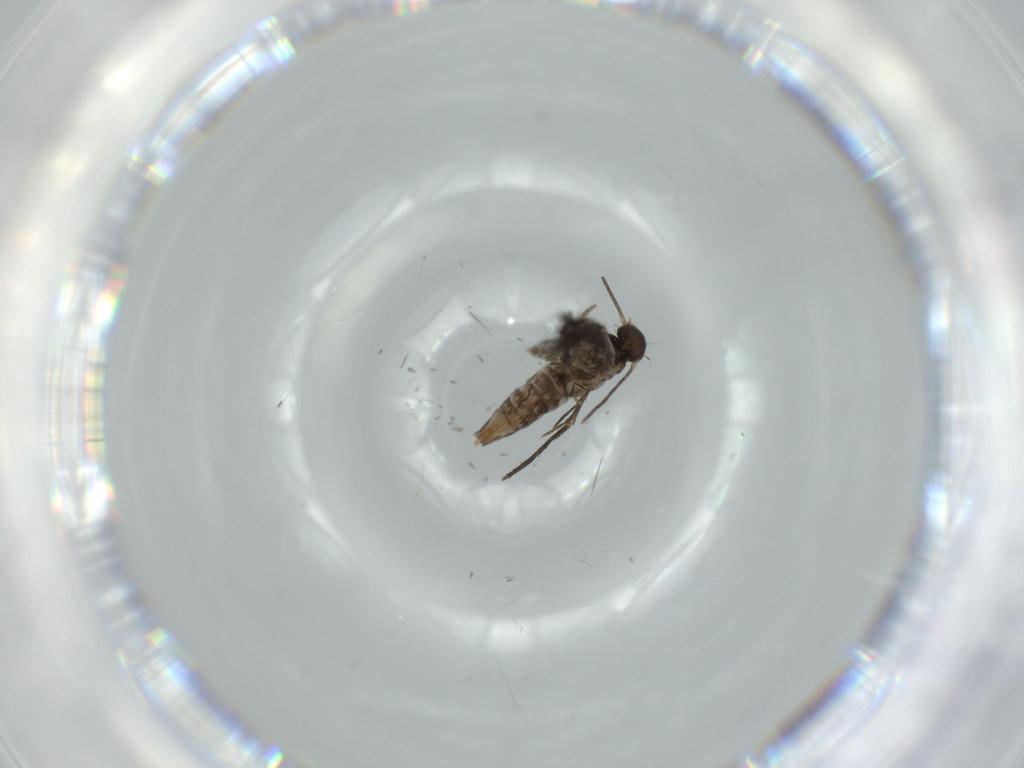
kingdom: Animalia
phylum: Arthropoda
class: Insecta
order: Lepidoptera
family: Heliozelidae
